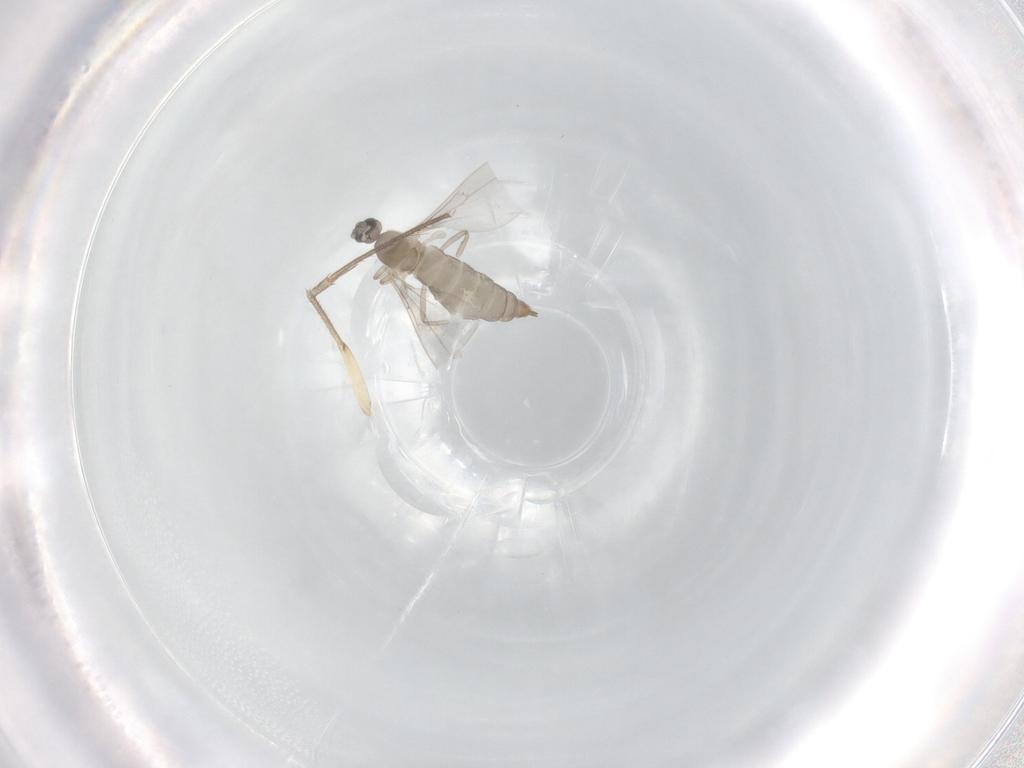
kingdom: Animalia
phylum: Arthropoda
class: Insecta
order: Diptera
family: Cecidomyiidae
